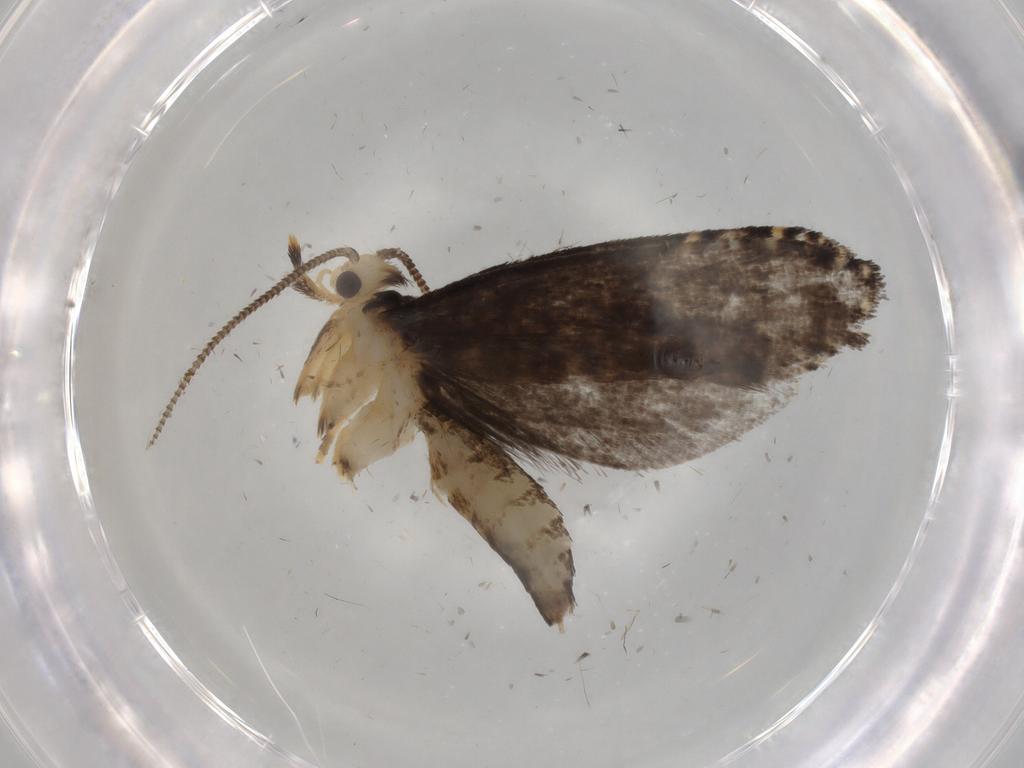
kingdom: Animalia
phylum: Arthropoda
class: Insecta
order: Lepidoptera
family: Tineidae
